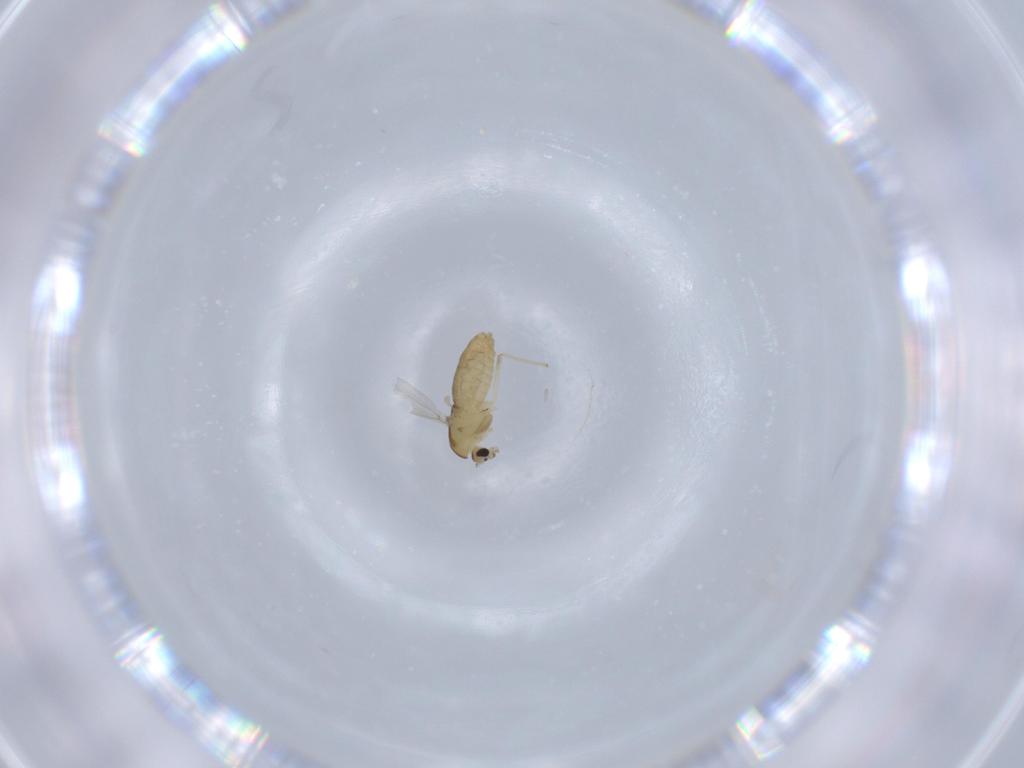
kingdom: Animalia
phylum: Arthropoda
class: Insecta
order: Diptera
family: Chironomidae
